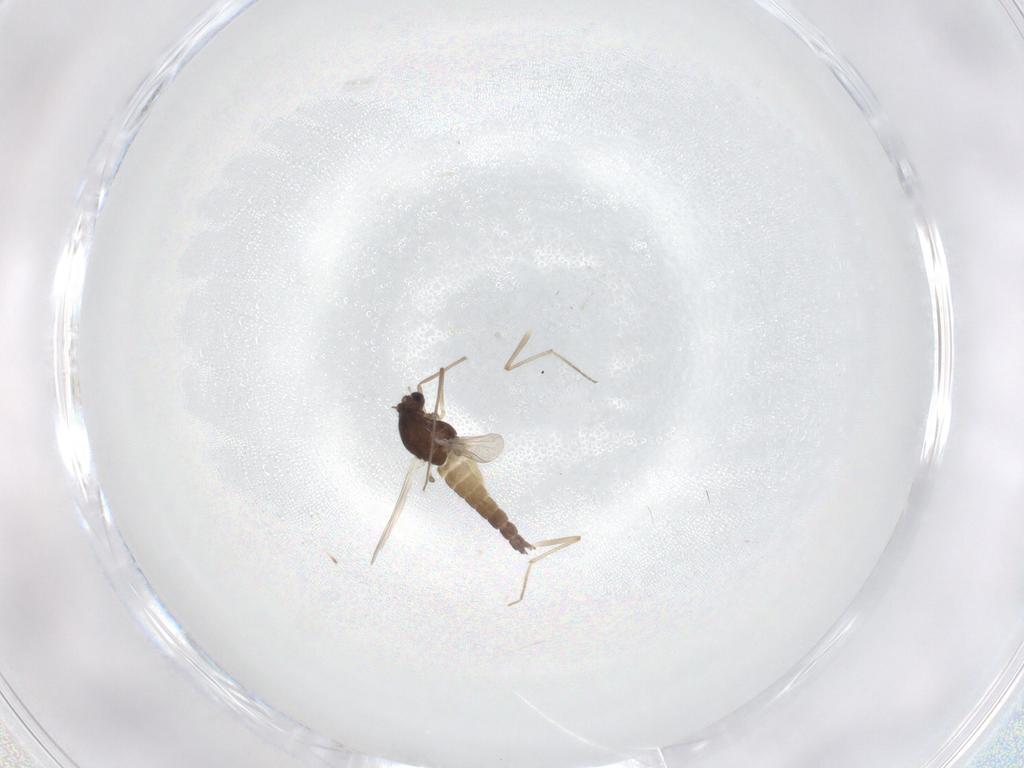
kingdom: Animalia
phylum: Arthropoda
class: Insecta
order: Diptera
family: Chironomidae
